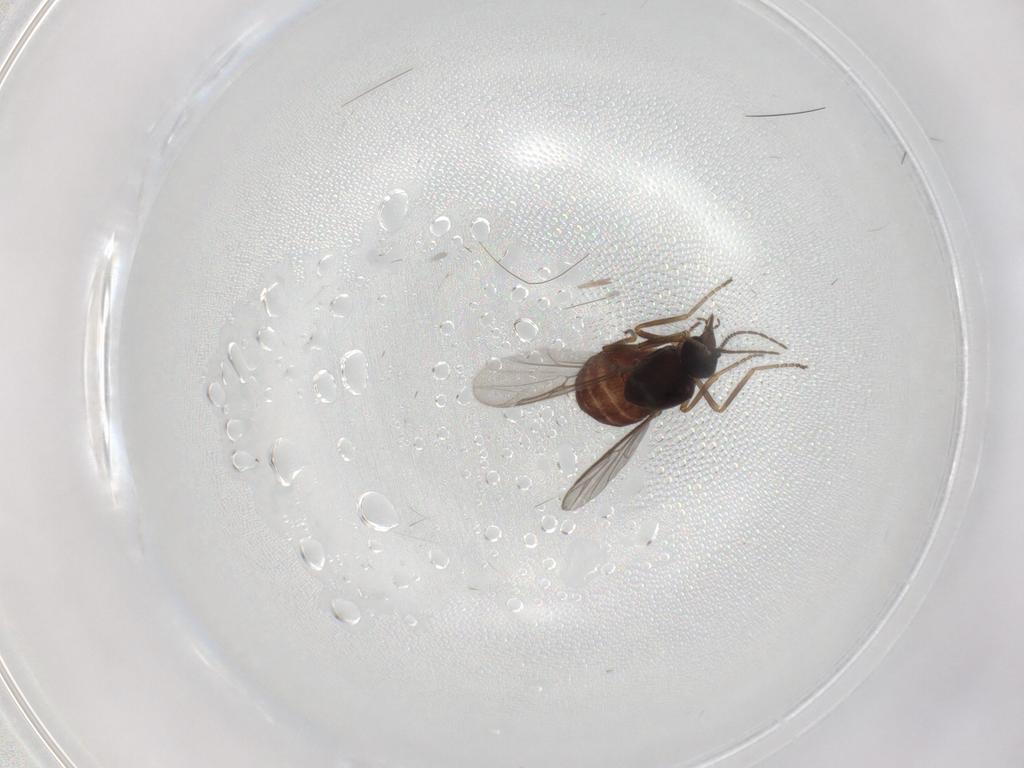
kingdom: Animalia
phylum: Arthropoda
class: Insecta
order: Diptera
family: Ceratopogonidae
